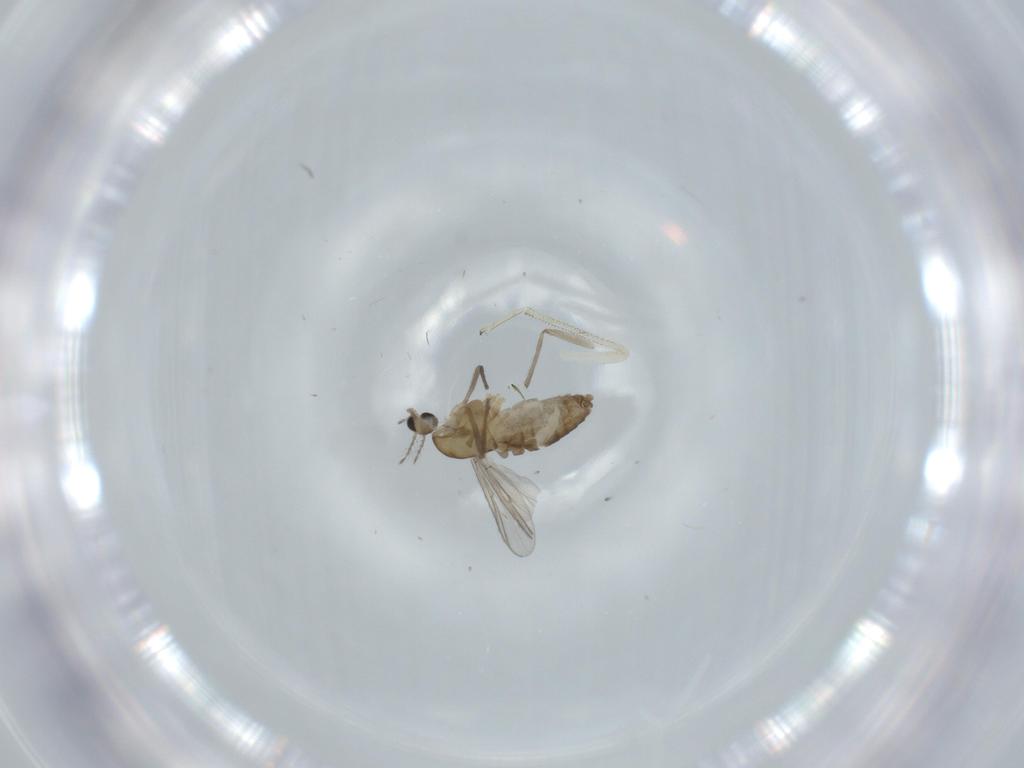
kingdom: Animalia
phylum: Arthropoda
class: Insecta
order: Diptera
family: Chironomidae
